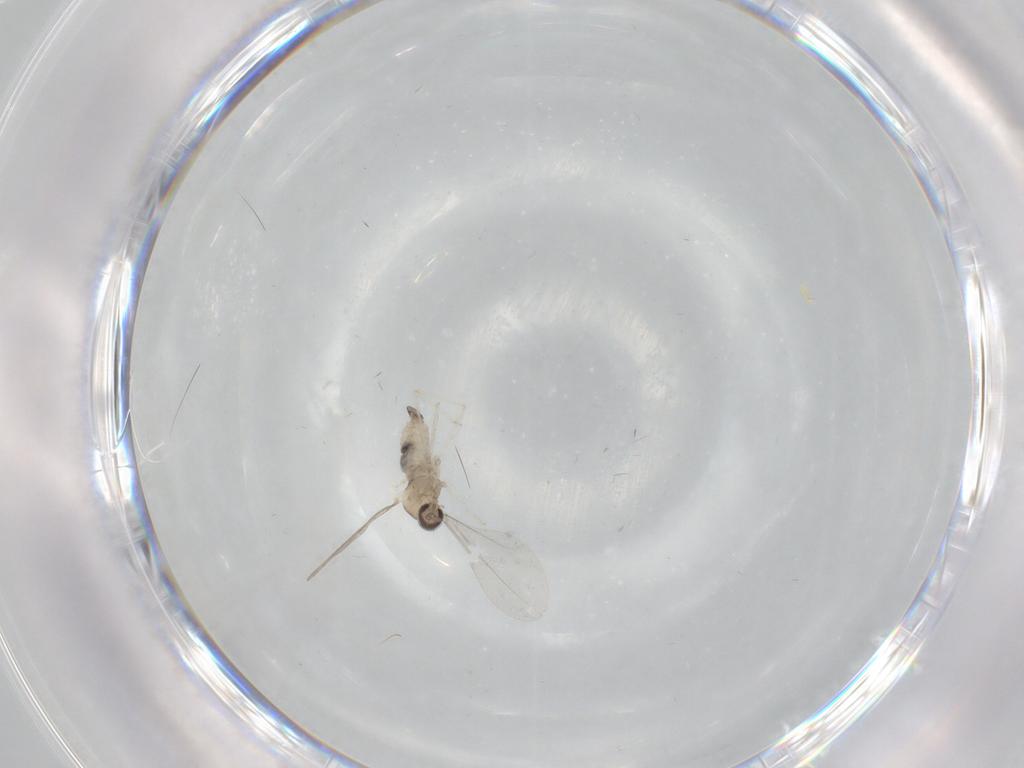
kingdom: Animalia
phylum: Arthropoda
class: Insecta
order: Diptera
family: Cecidomyiidae
